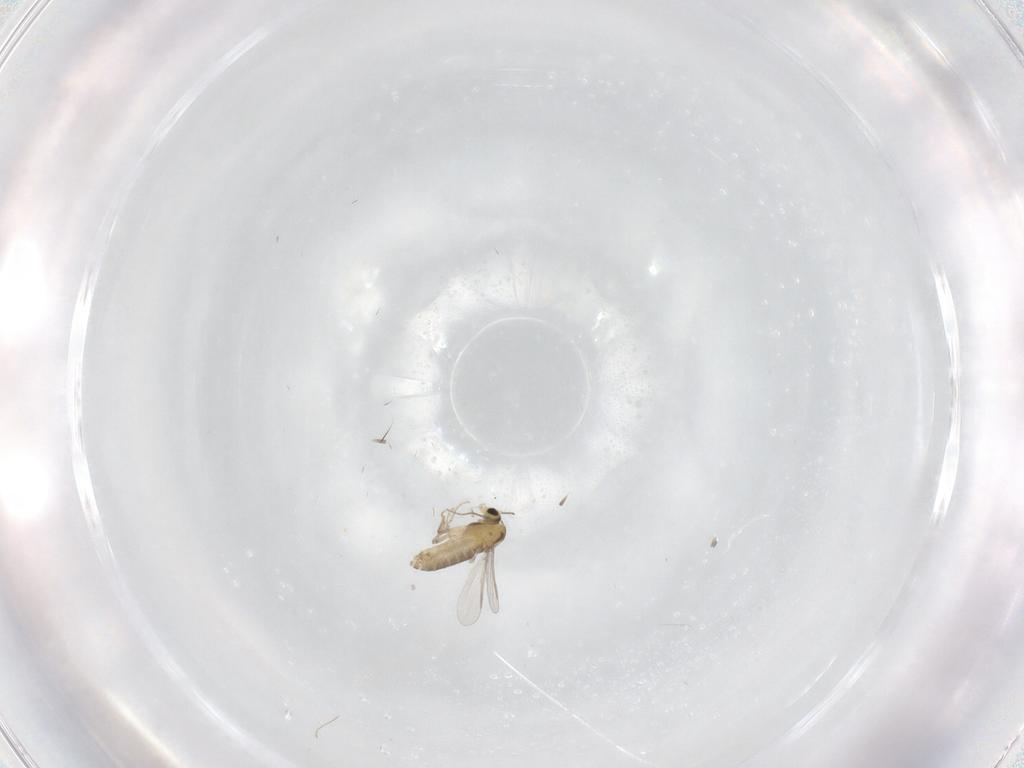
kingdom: Animalia
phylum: Arthropoda
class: Insecta
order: Diptera
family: Chironomidae
